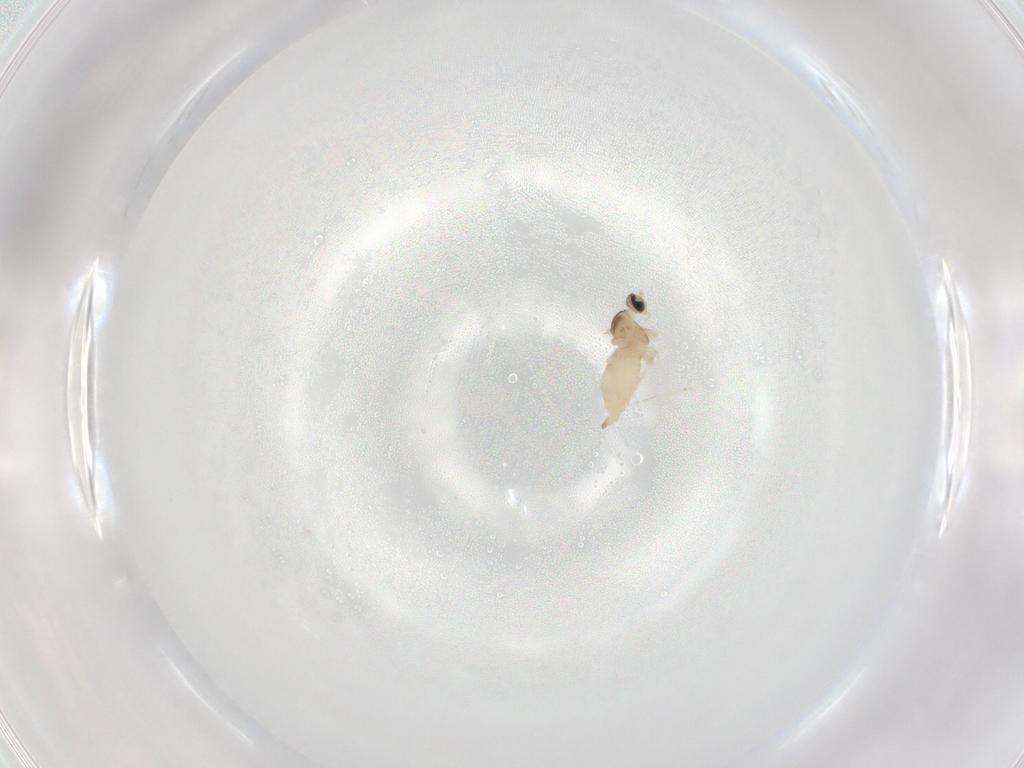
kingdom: Animalia
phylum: Arthropoda
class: Insecta
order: Diptera
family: Cecidomyiidae
